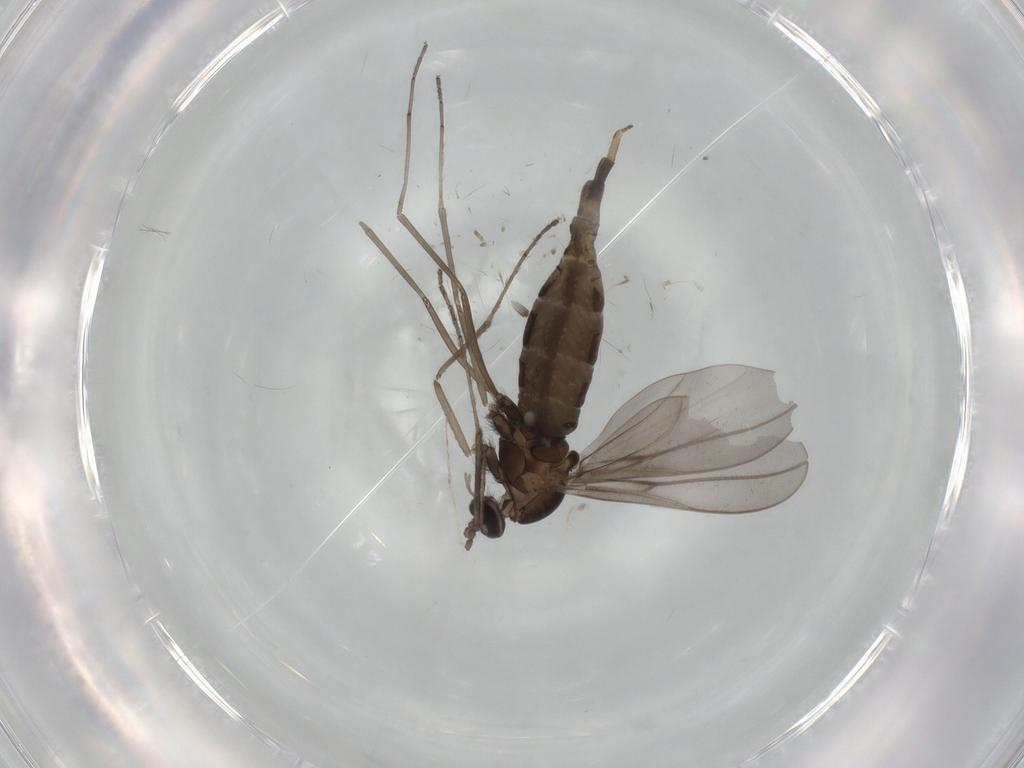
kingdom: Animalia
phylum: Arthropoda
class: Insecta
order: Diptera
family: Cecidomyiidae
